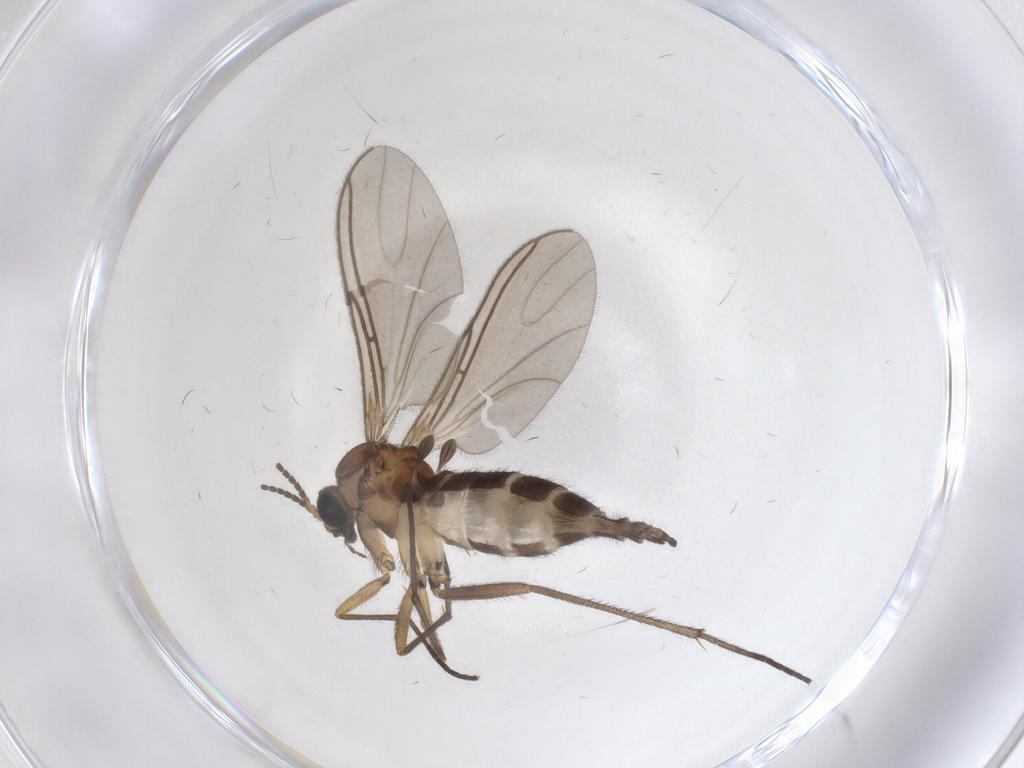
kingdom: Animalia
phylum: Arthropoda
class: Insecta
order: Diptera
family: Sciaridae
